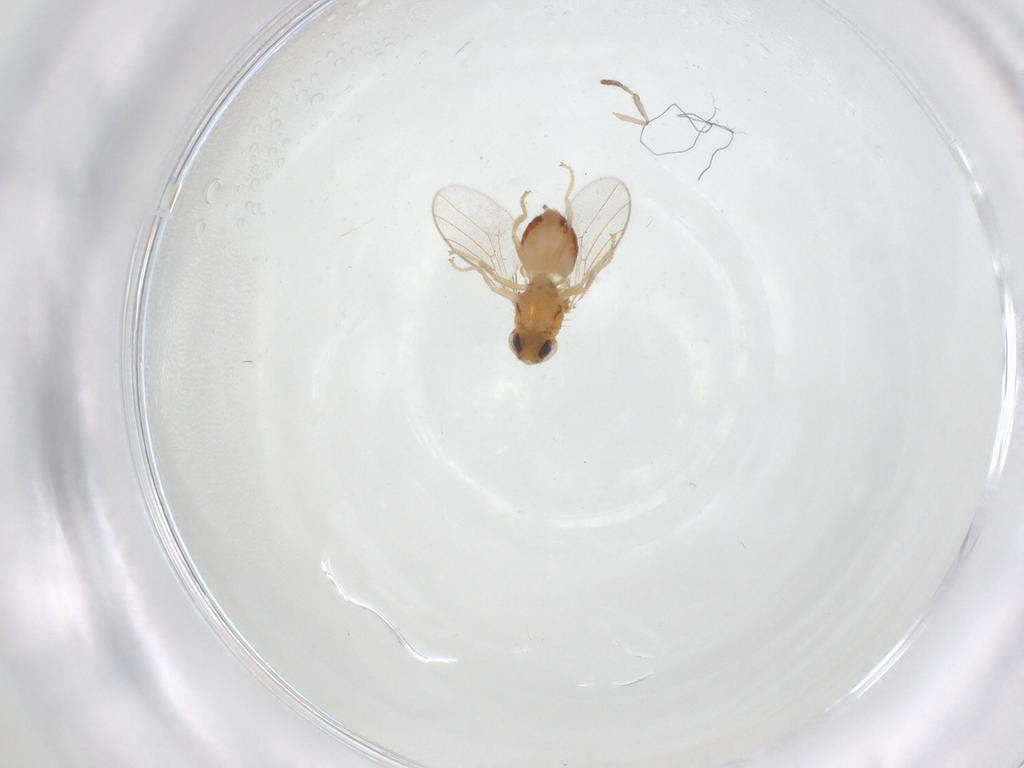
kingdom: Animalia
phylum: Arthropoda
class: Insecta
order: Diptera
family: Chloropidae
